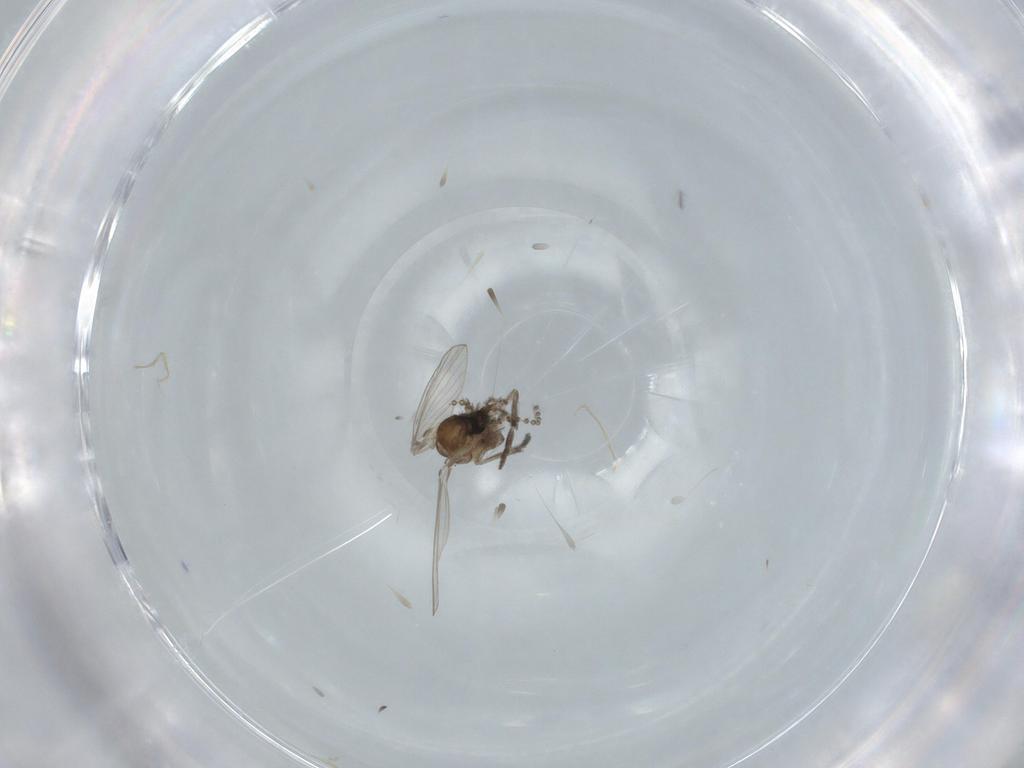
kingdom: Animalia
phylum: Arthropoda
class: Insecta
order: Diptera
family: Psychodidae
